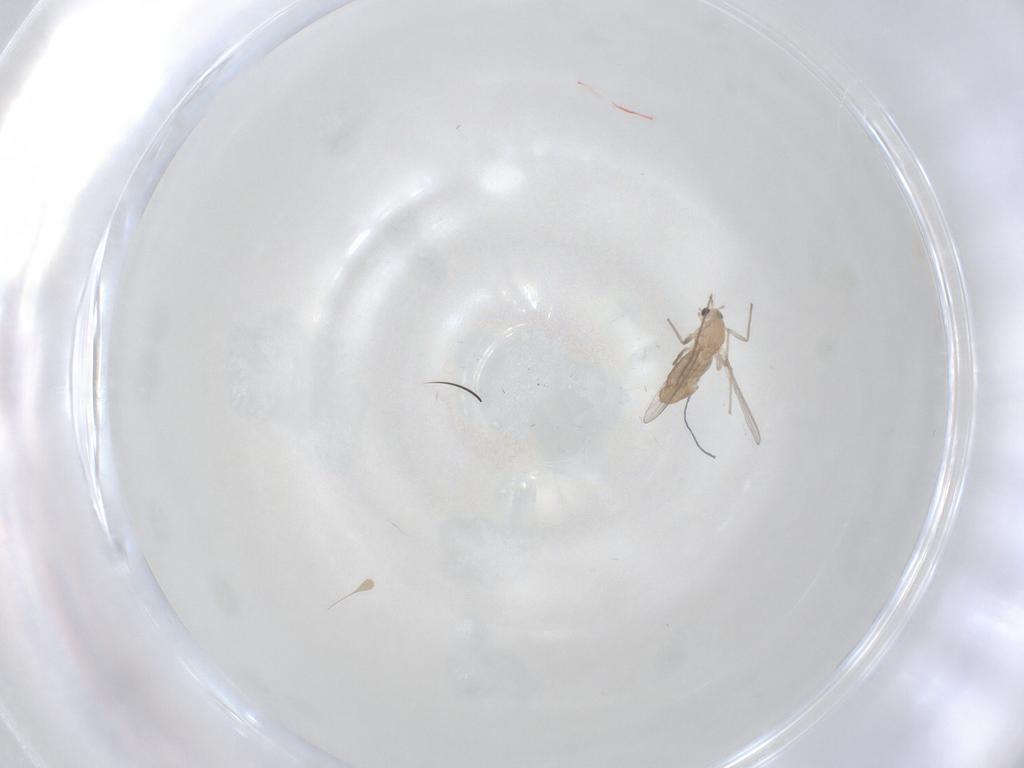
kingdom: Animalia
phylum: Arthropoda
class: Insecta
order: Diptera
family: Chironomidae
